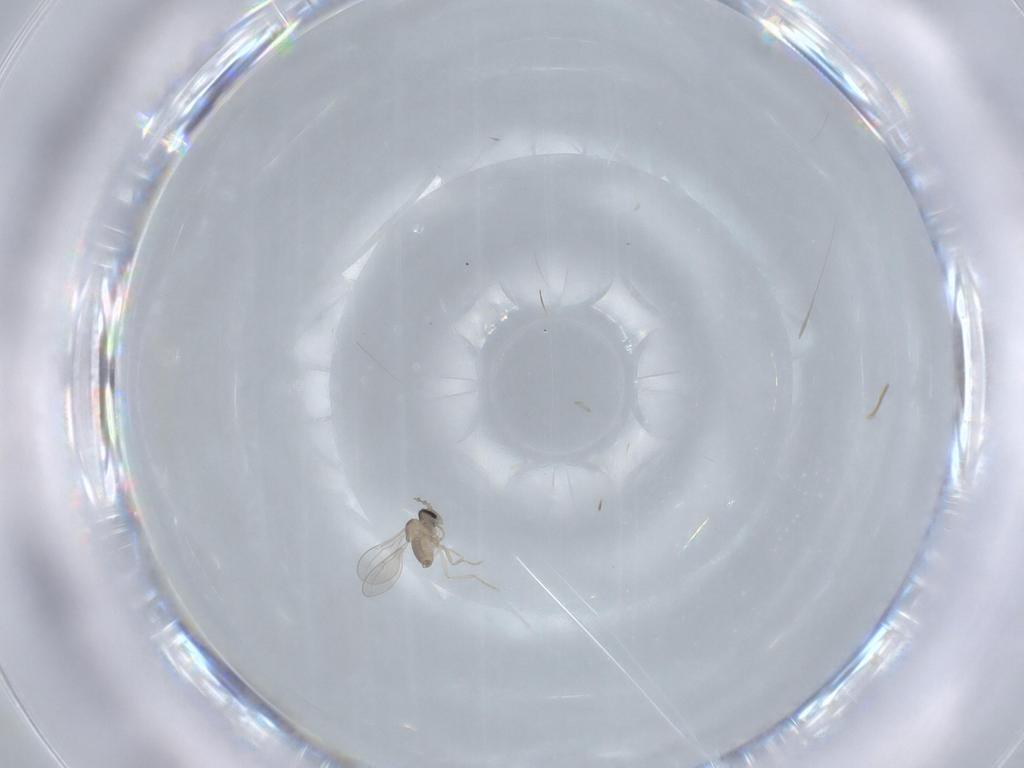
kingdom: Animalia
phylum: Arthropoda
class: Insecta
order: Diptera
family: Cecidomyiidae
